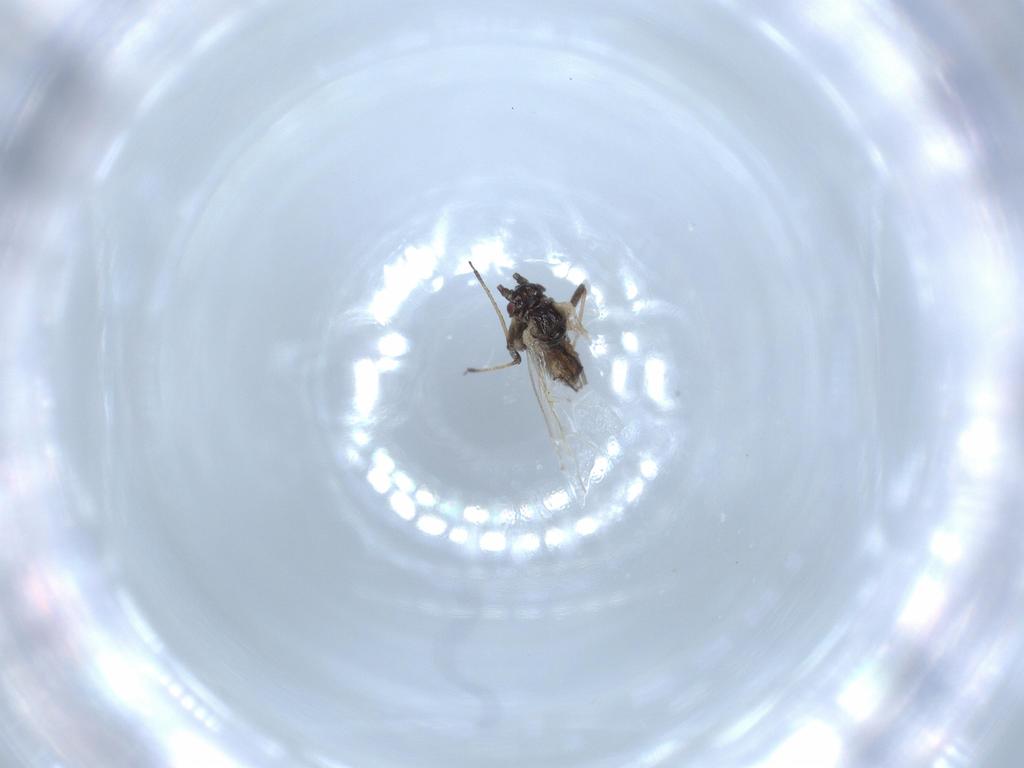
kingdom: Animalia
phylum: Arthropoda
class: Insecta
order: Hemiptera
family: Aphididae
